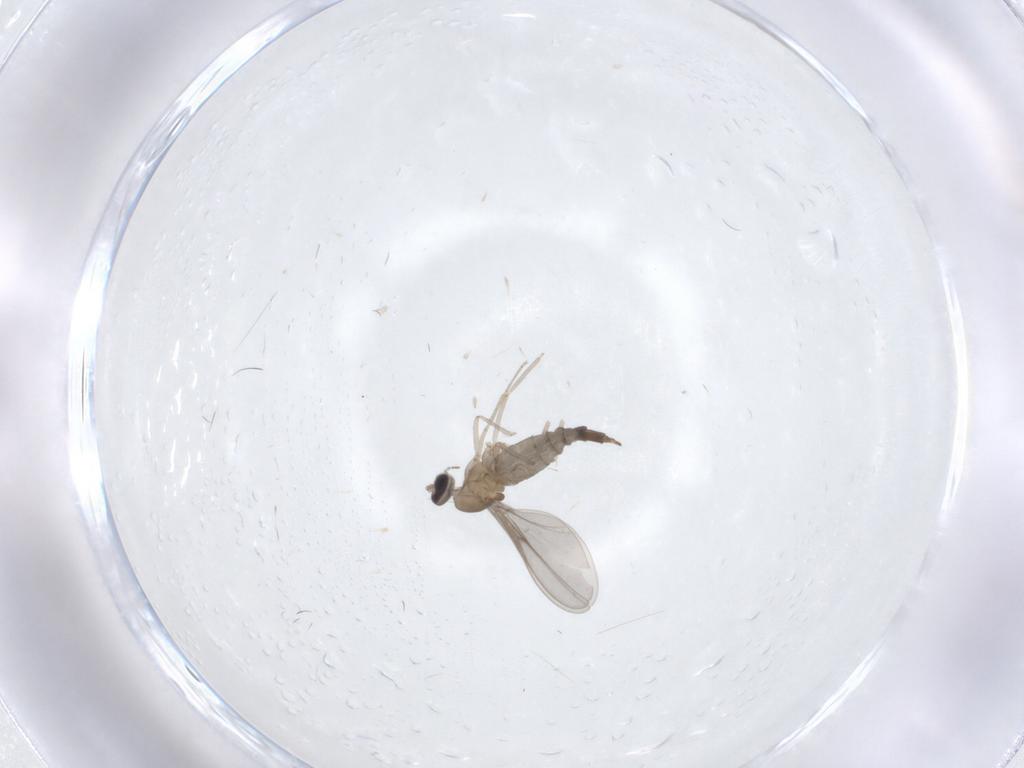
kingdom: Animalia
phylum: Arthropoda
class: Insecta
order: Diptera
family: Cecidomyiidae
